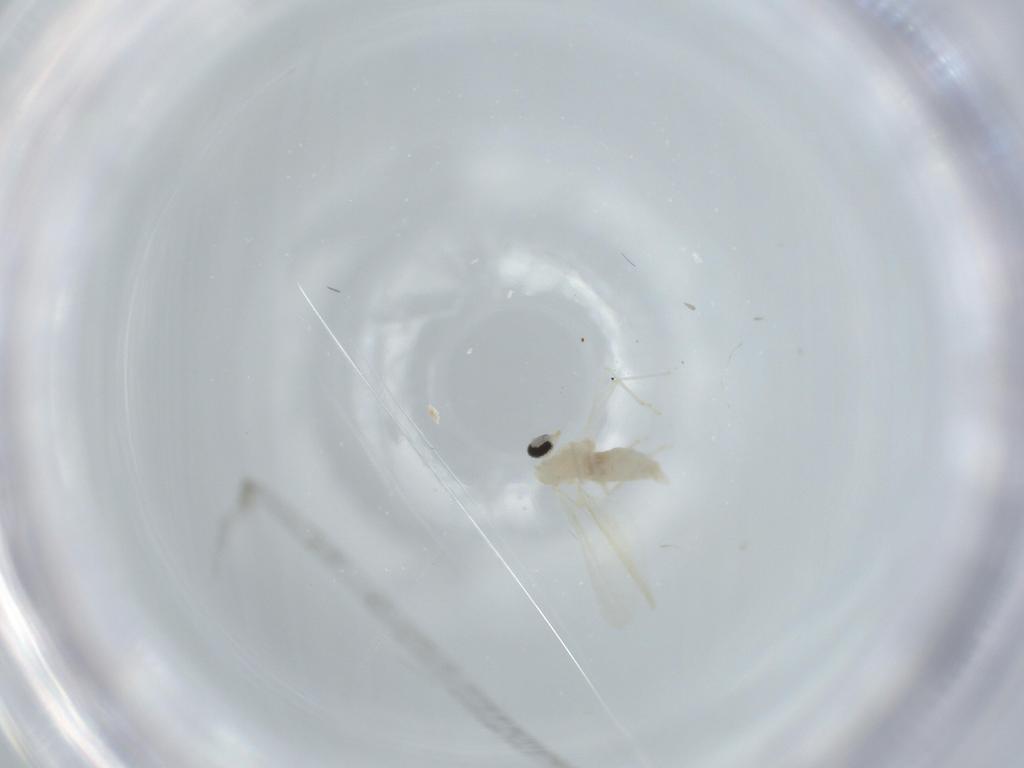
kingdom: Animalia
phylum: Arthropoda
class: Insecta
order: Diptera
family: Cecidomyiidae
